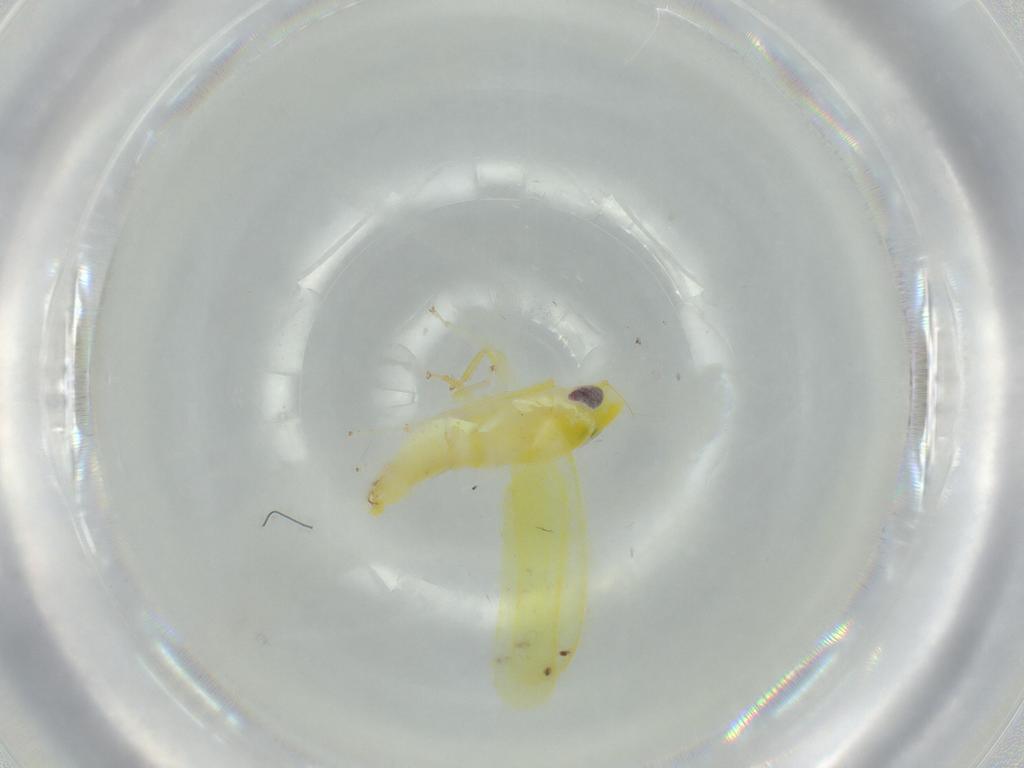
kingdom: Animalia
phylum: Arthropoda
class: Insecta
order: Hemiptera
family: Cicadellidae
